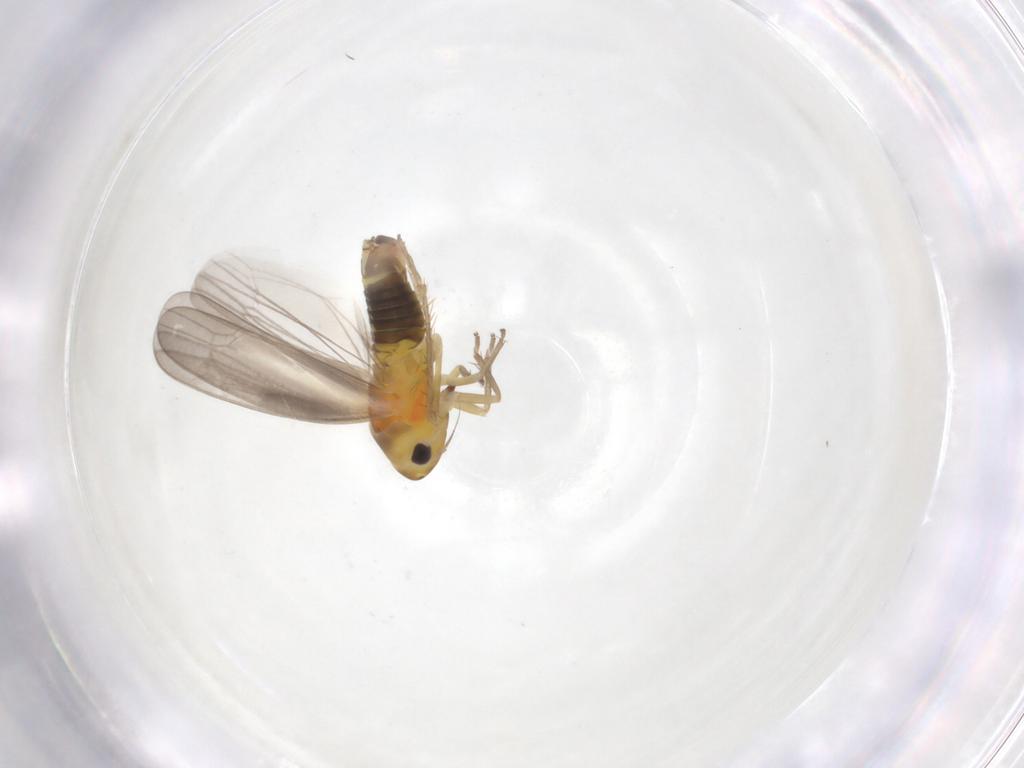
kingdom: Animalia
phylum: Arthropoda
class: Insecta
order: Hemiptera
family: Cicadellidae
